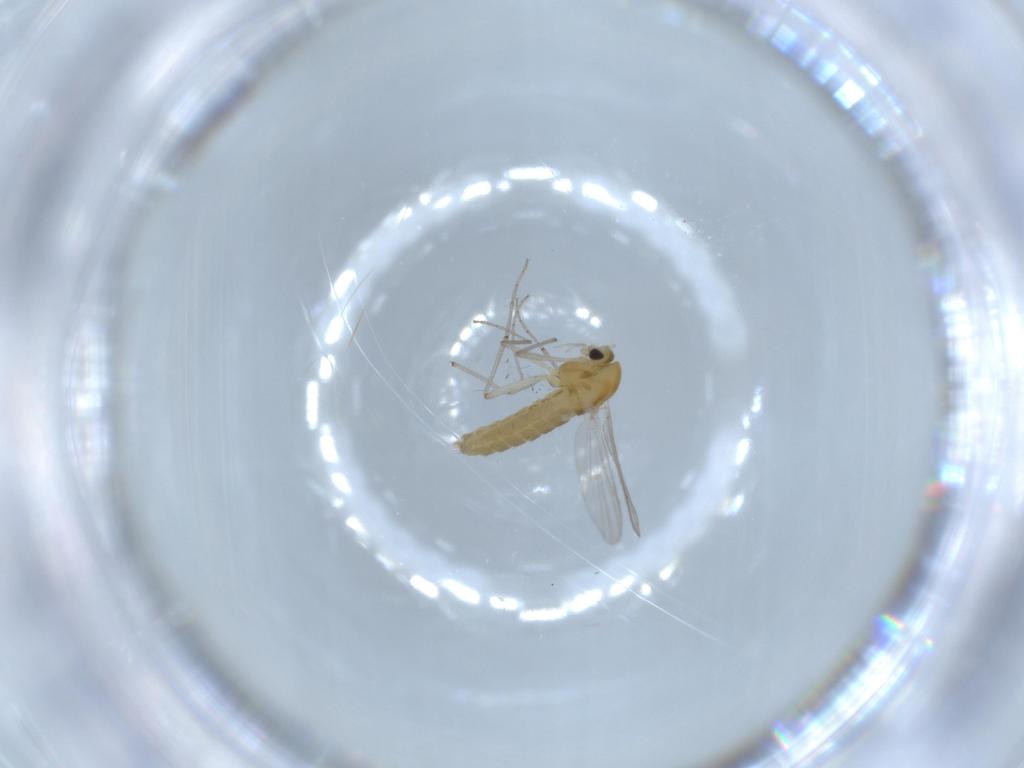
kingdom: Animalia
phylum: Arthropoda
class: Insecta
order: Diptera
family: Chironomidae
